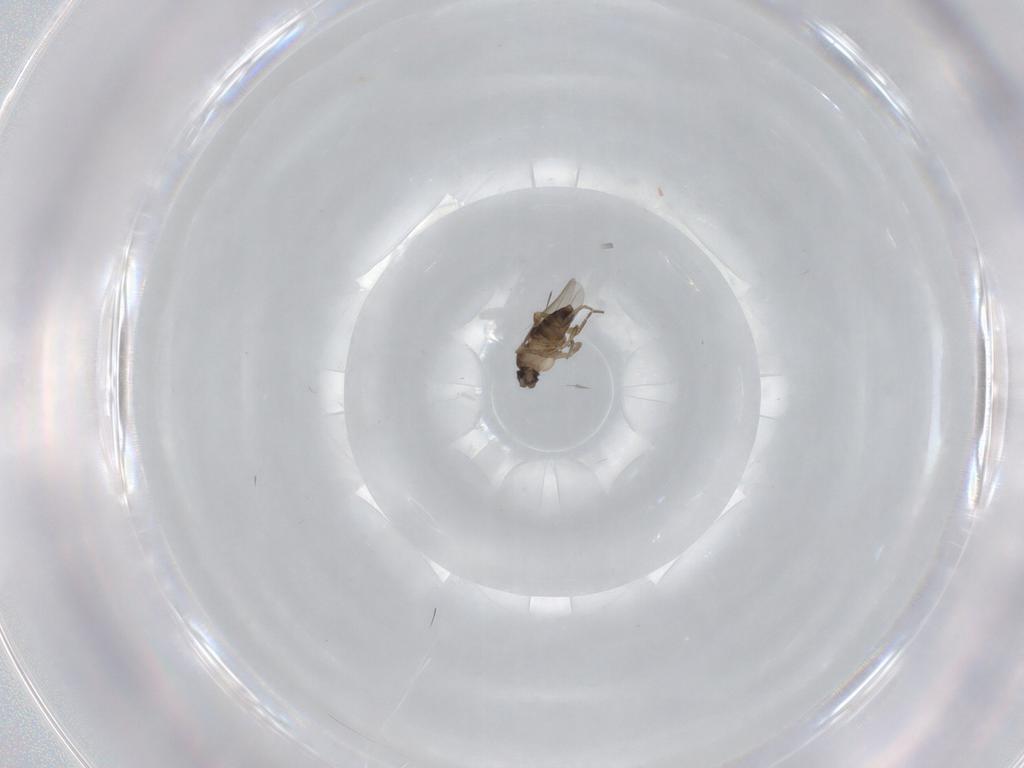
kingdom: Animalia
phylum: Arthropoda
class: Insecta
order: Diptera
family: Phoridae
